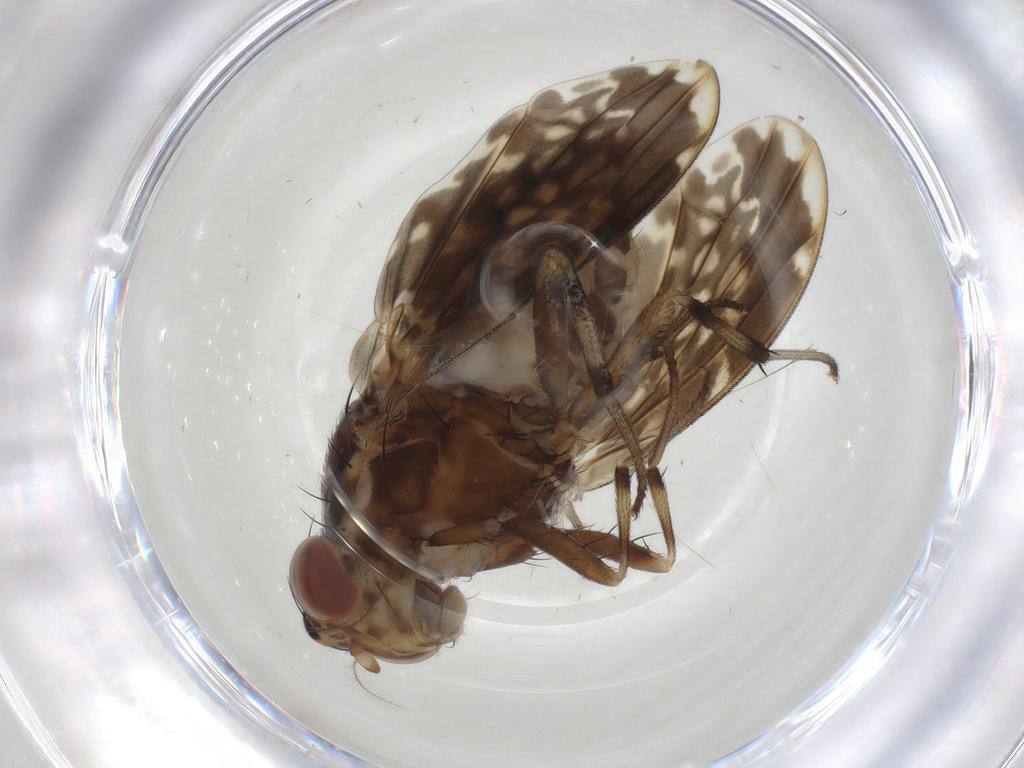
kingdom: Animalia
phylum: Arthropoda
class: Insecta
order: Diptera
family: Lauxaniidae
